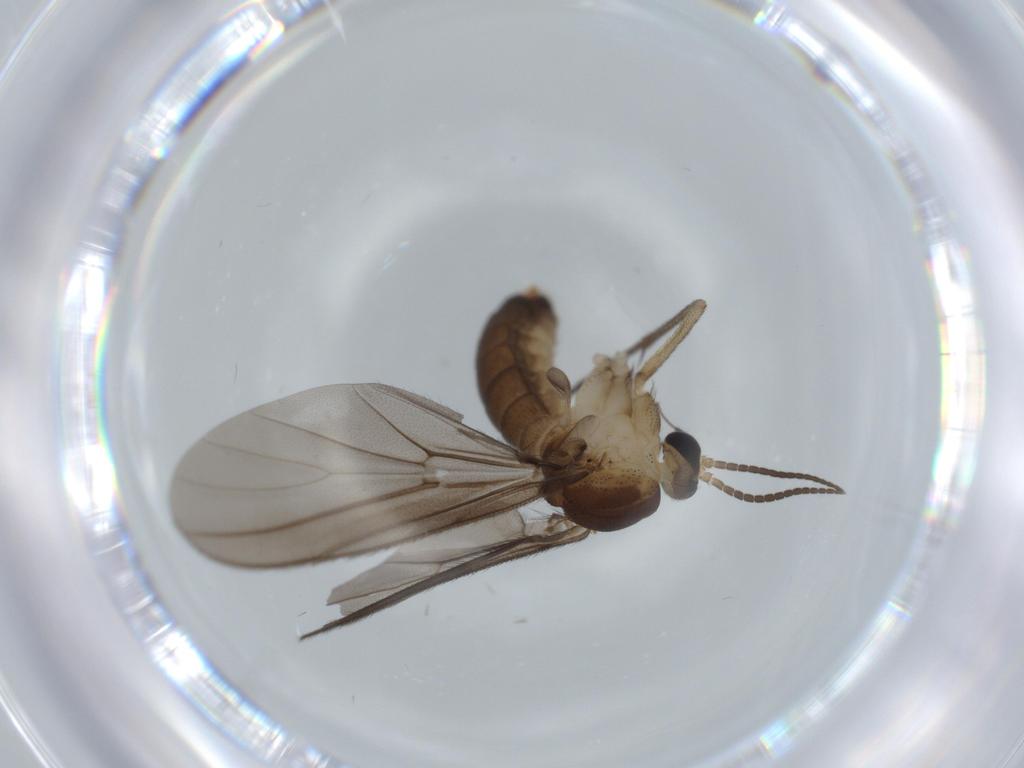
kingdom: Animalia
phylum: Arthropoda
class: Insecta
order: Diptera
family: Diadocidiidae
